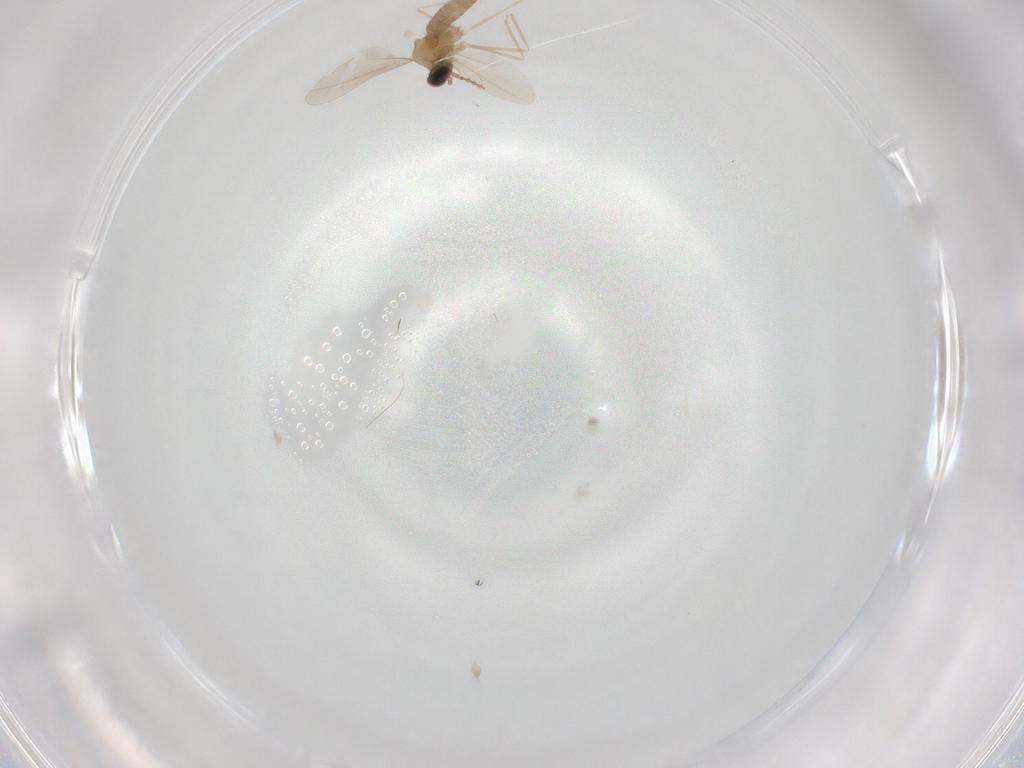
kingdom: Animalia
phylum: Arthropoda
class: Insecta
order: Diptera
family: Cecidomyiidae
